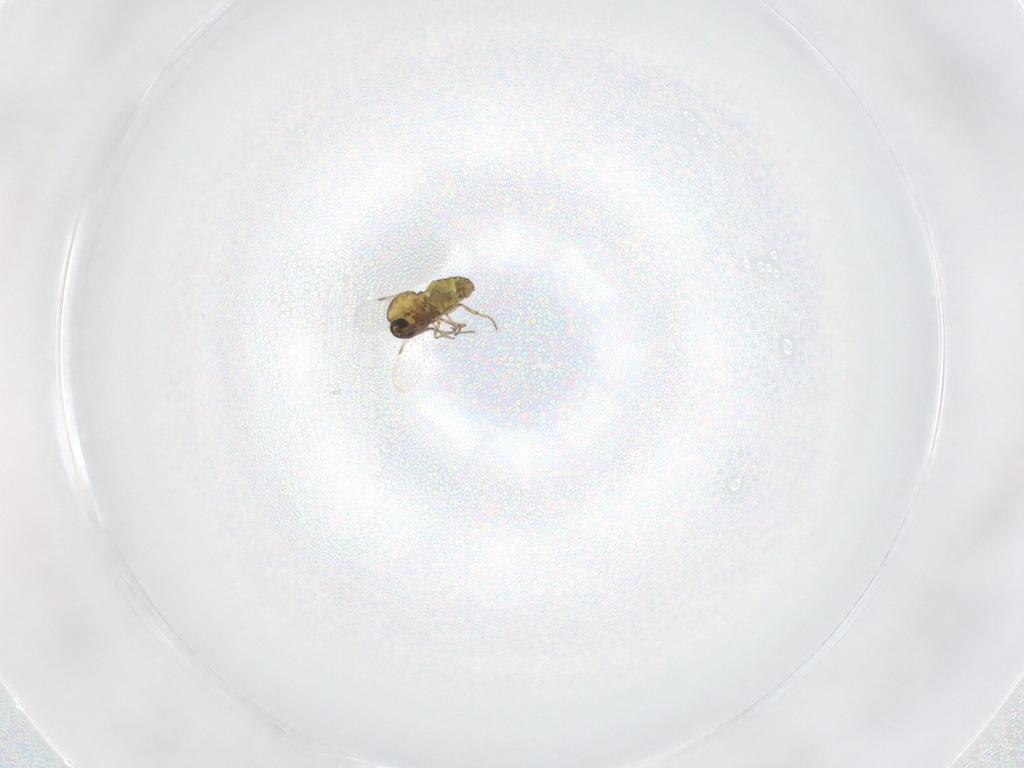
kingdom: Animalia
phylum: Arthropoda
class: Insecta
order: Diptera
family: Ceratopogonidae
